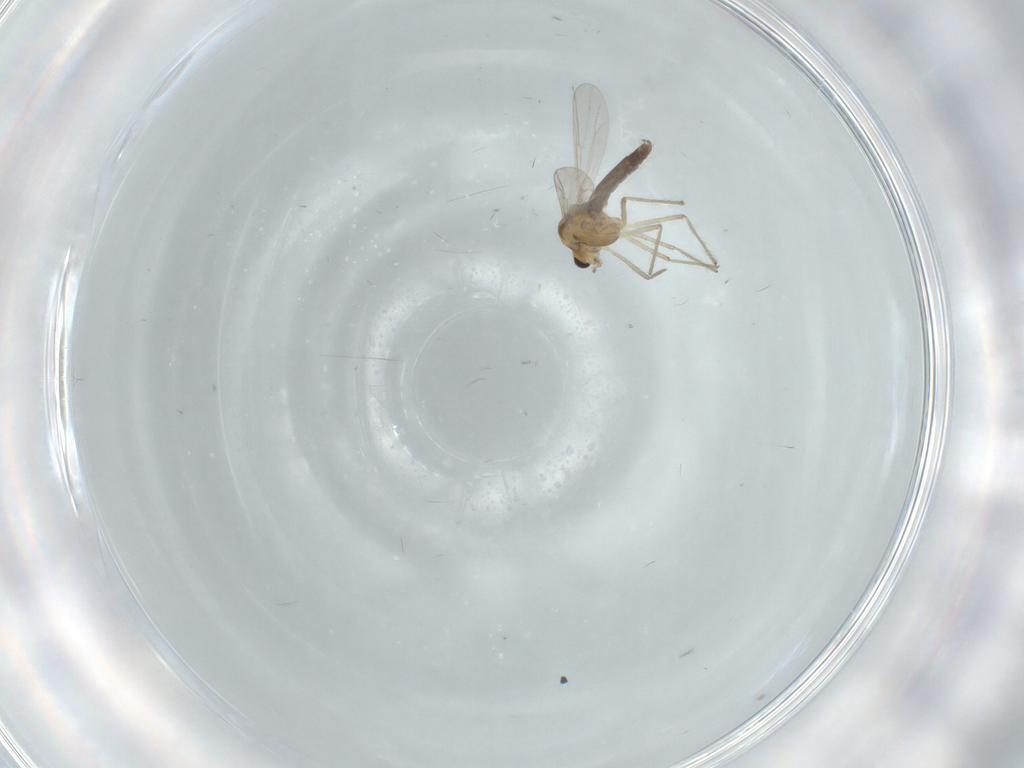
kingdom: Animalia
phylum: Arthropoda
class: Insecta
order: Diptera
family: Chironomidae
